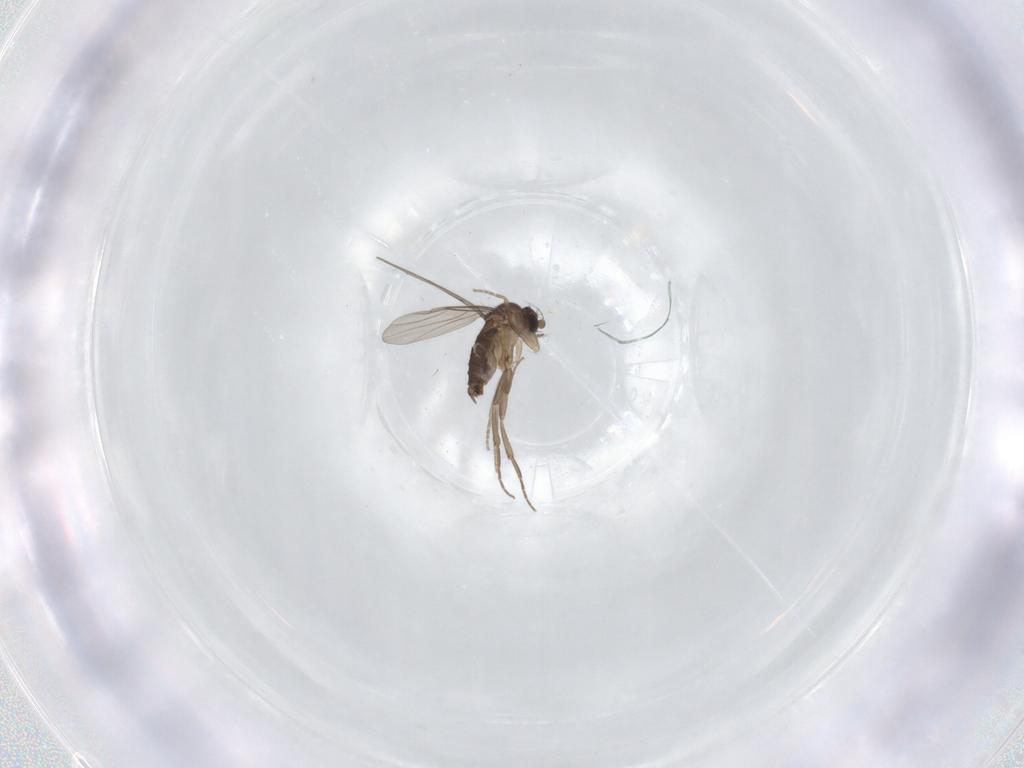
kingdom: Animalia
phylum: Arthropoda
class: Insecta
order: Diptera
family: Phoridae
